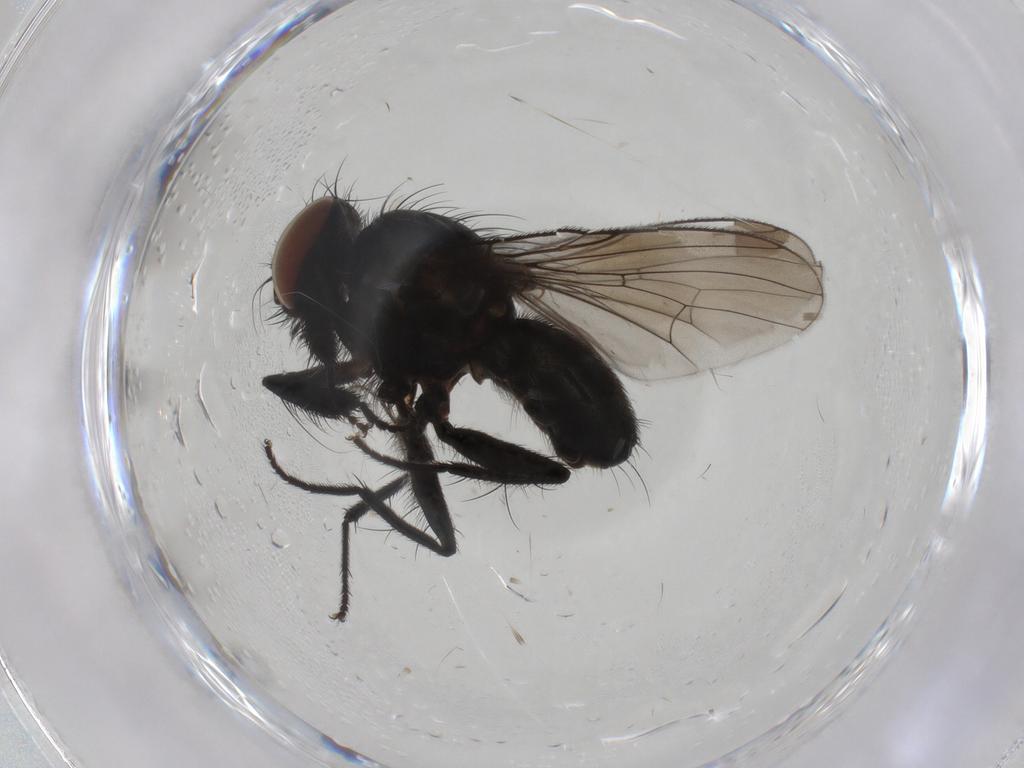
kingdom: Animalia
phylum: Arthropoda
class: Insecta
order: Diptera
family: Muscidae
